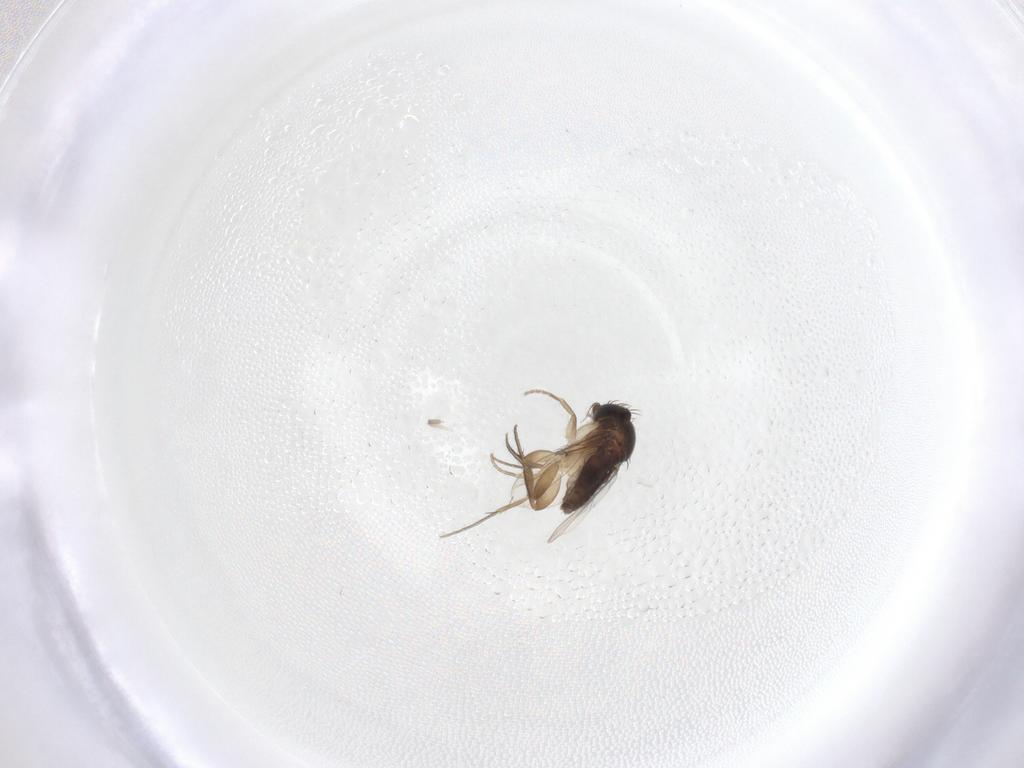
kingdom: Animalia
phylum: Arthropoda
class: Insecta
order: Diptera
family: Phoridae
